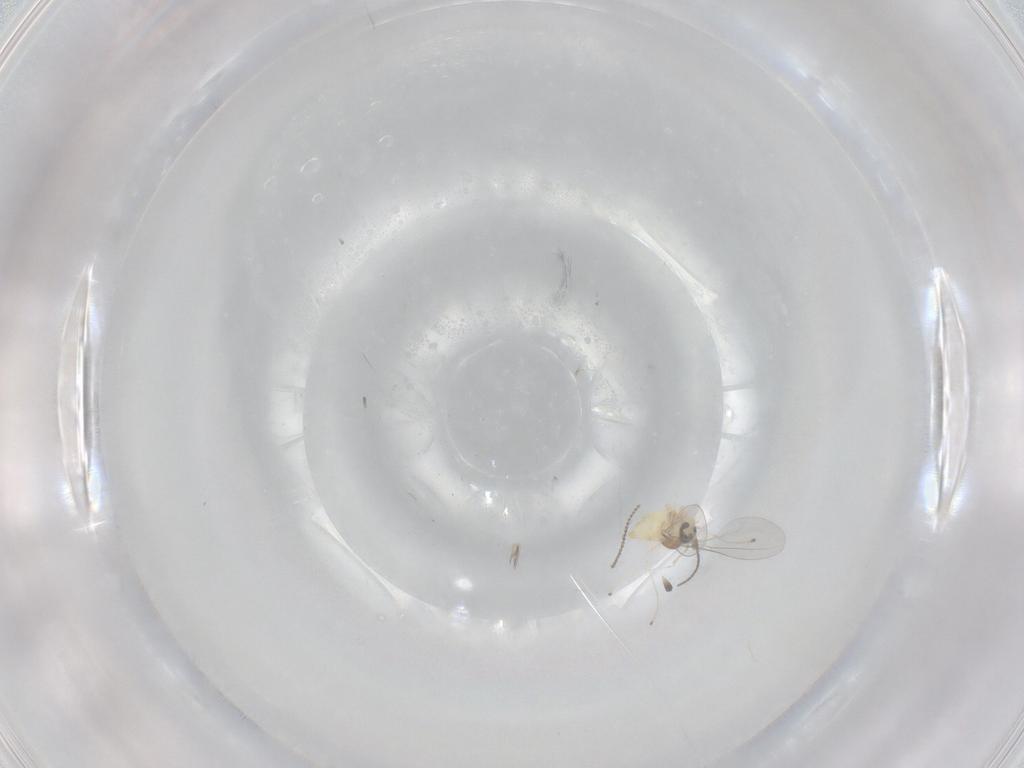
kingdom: Animalia
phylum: Arthropoda
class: Insecta
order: Diptera
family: Cecidomyiidae
